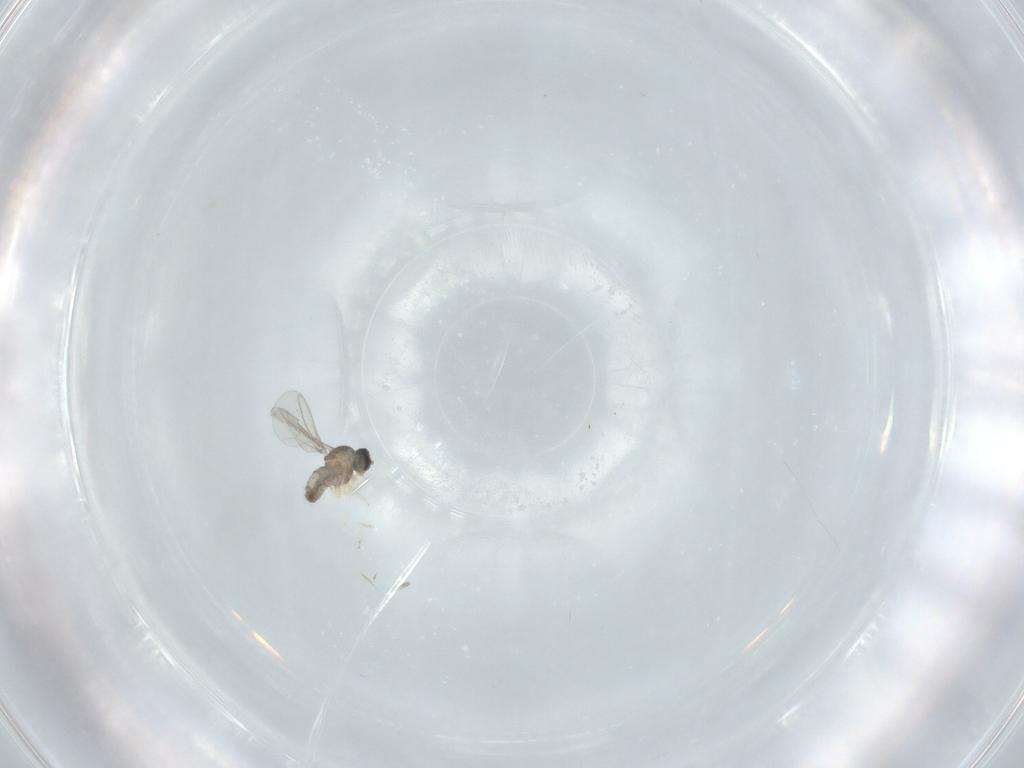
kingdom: Animalia
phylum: Arthropoda
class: Insecta
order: Diptera
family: Cecidomyiidae
